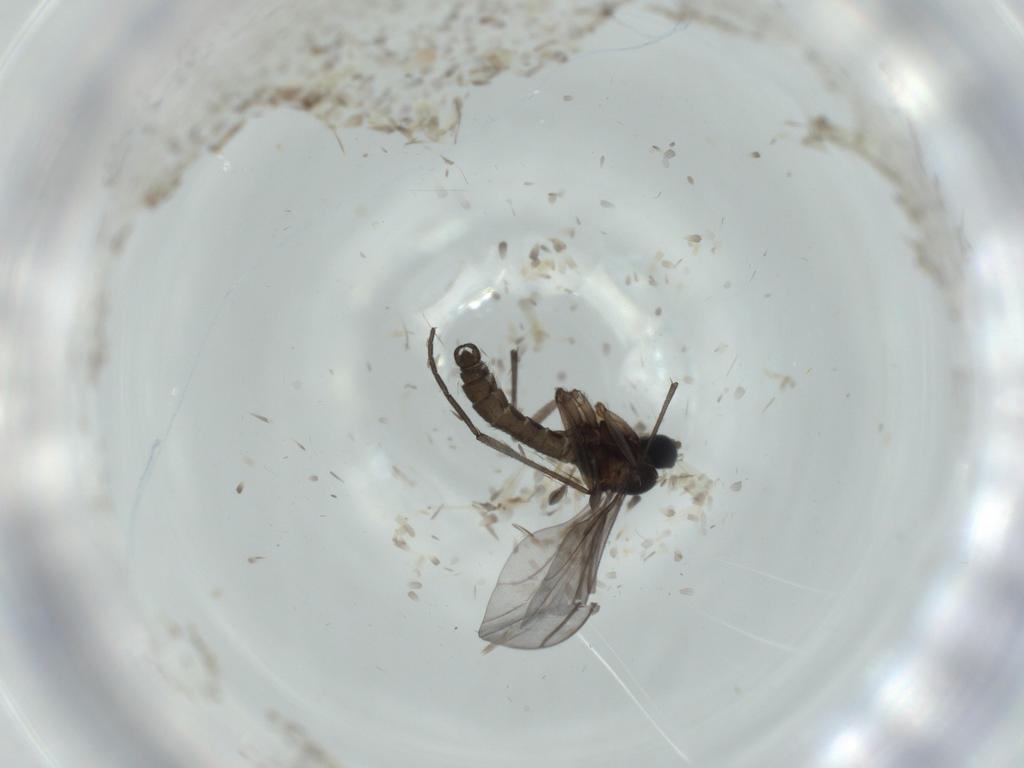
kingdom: Animalia
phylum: Arthropoda
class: Insecta
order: Diptera
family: Sciaridae
